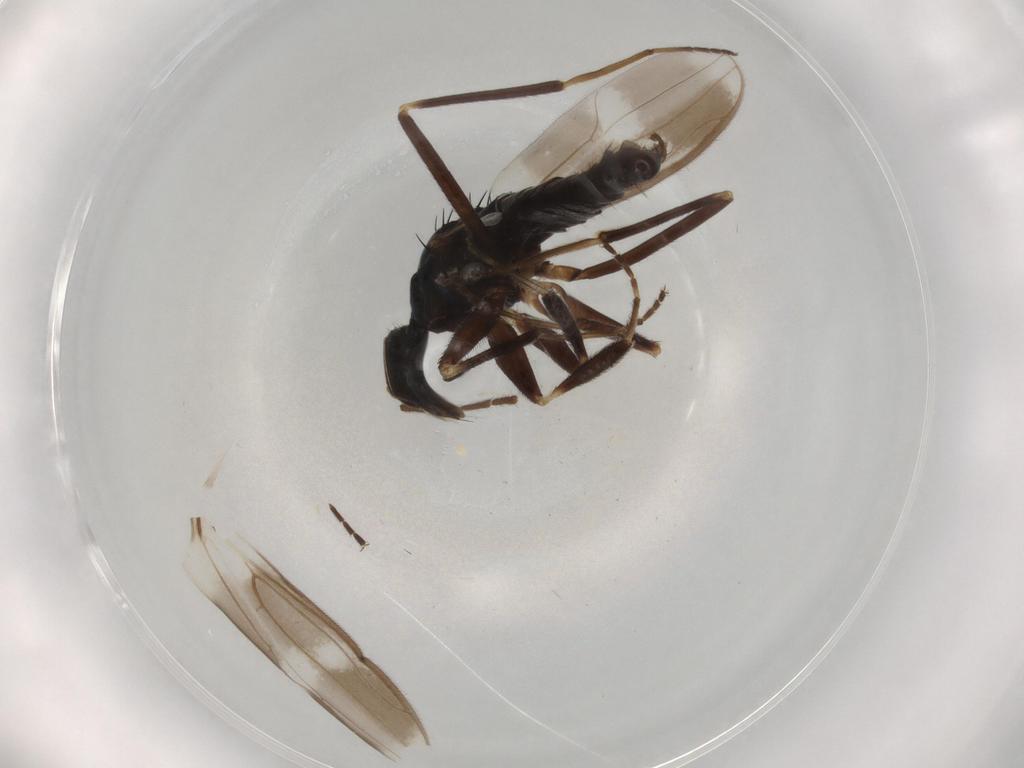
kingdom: Animalia
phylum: Arthropoda
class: Insecta
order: Diptera
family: Hybotidae
